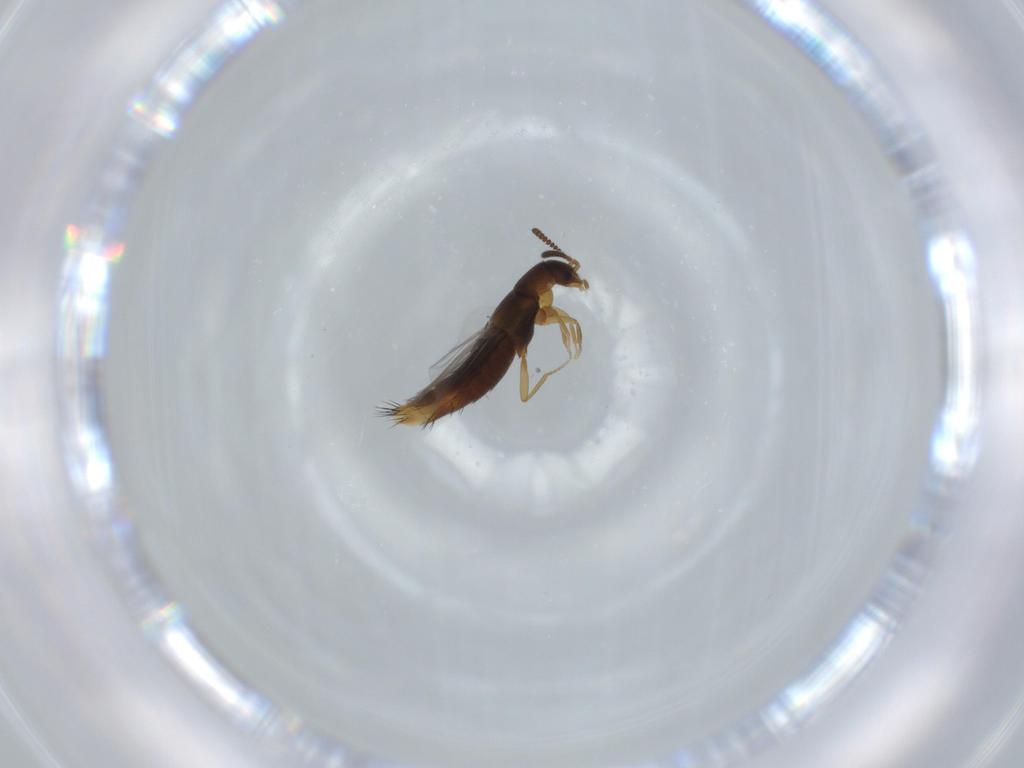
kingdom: Animalia
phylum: Arthropoda
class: Insecta
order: Coleoptera
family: Staphylinidae
